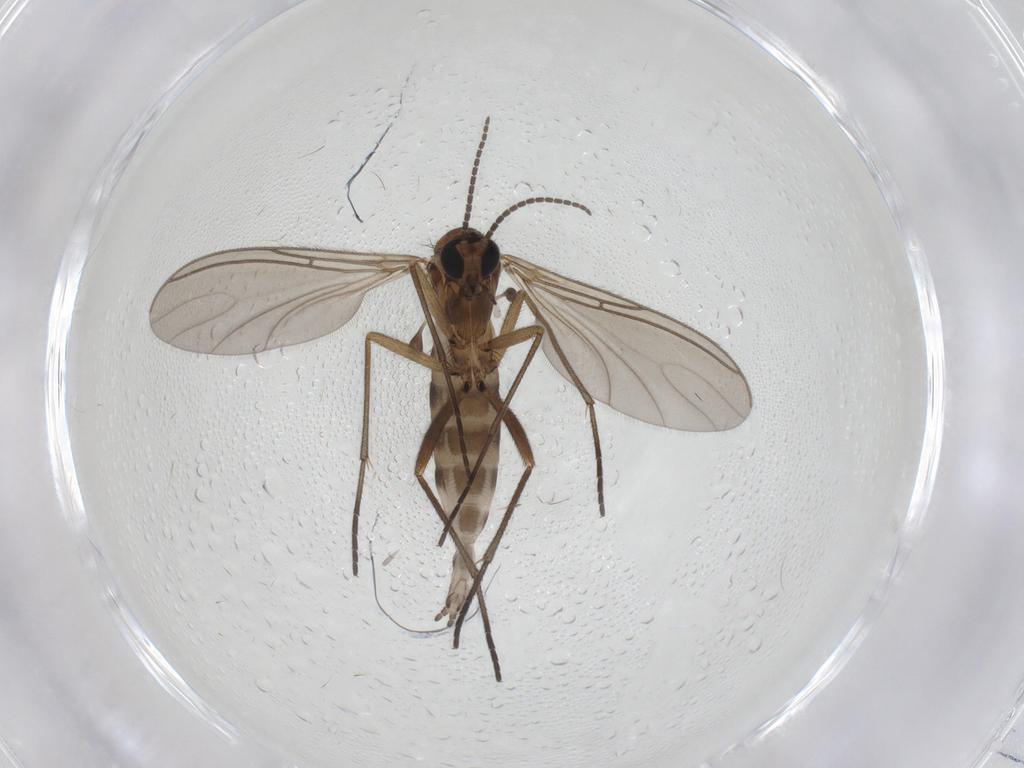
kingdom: Animalia
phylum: Arthropoda
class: Insecta
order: Diptera
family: Sciaridae
